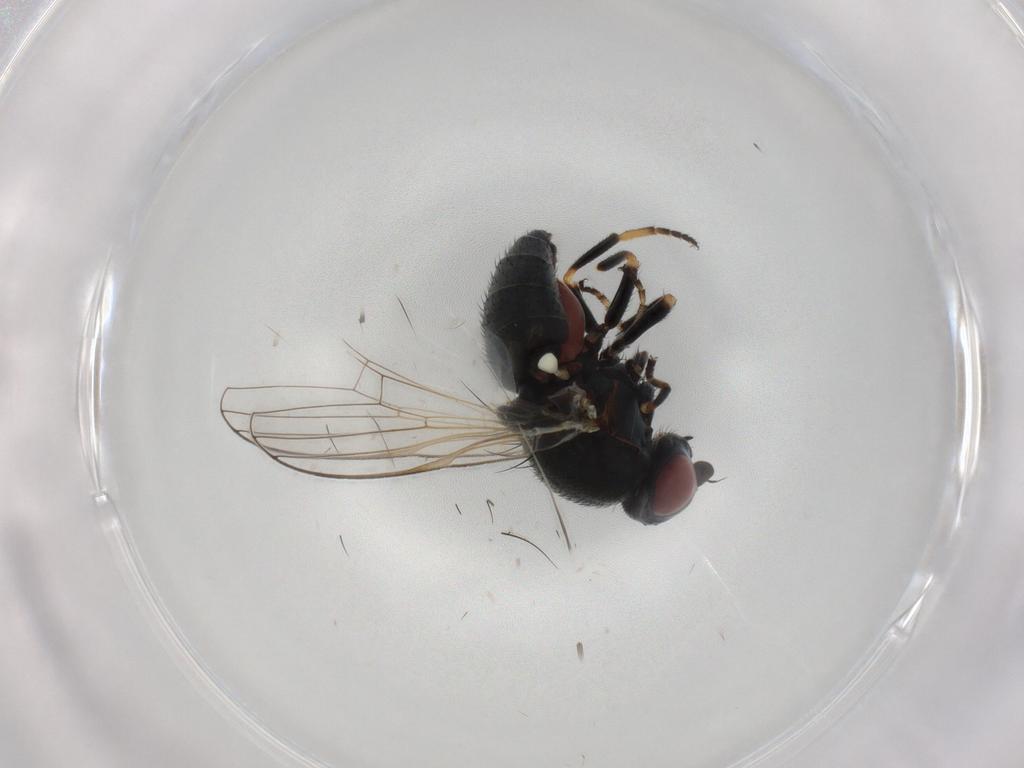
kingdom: Animalia
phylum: Arthropoda
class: Insecta
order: Diptera
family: Chamaemyiidae
